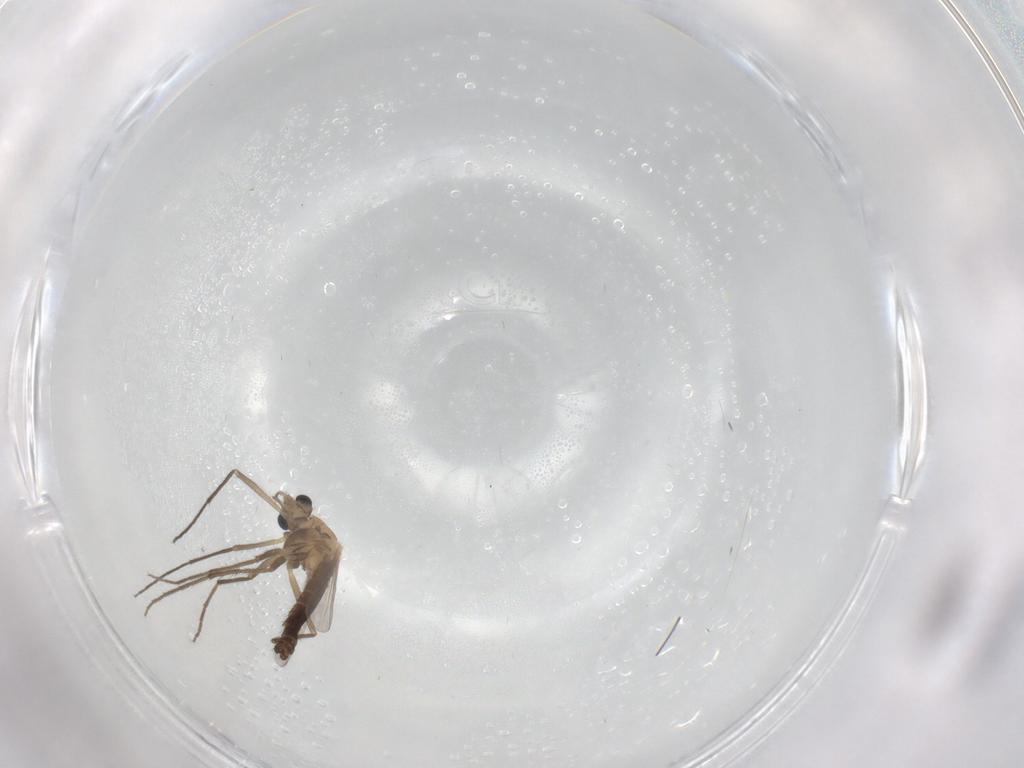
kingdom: Animalia
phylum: Arthropoda
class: Insecta
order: Diptera
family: Chironomidae
